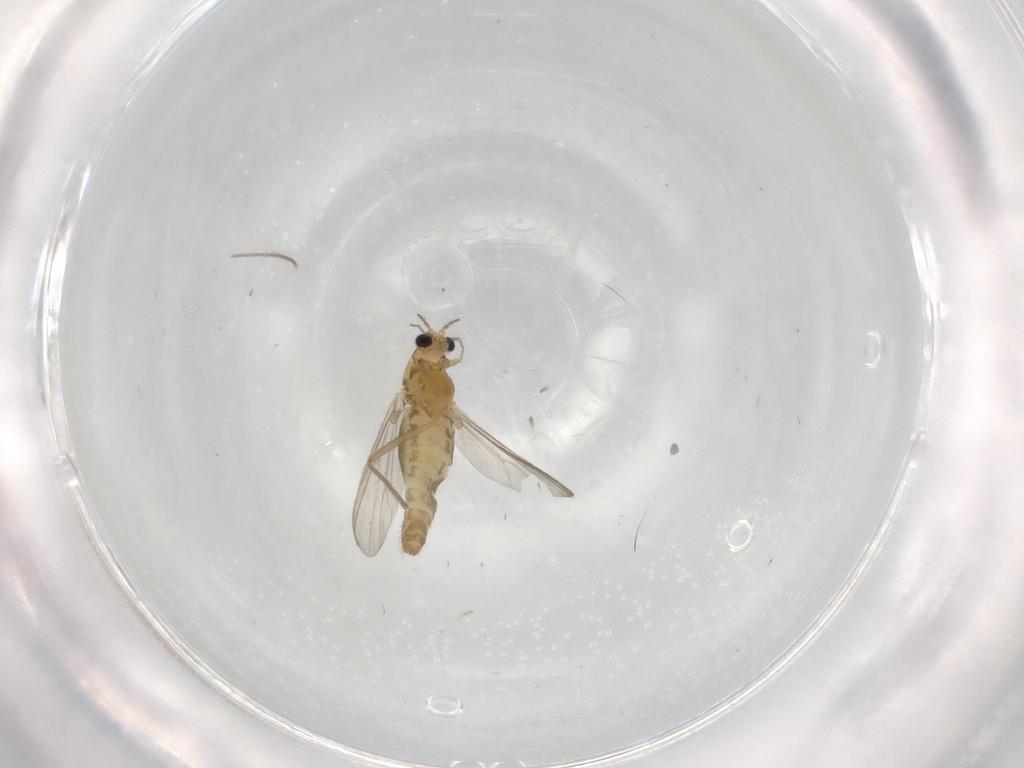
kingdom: Animalia
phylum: Arthropoda
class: Insecta
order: Diptera
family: Chironomidae
